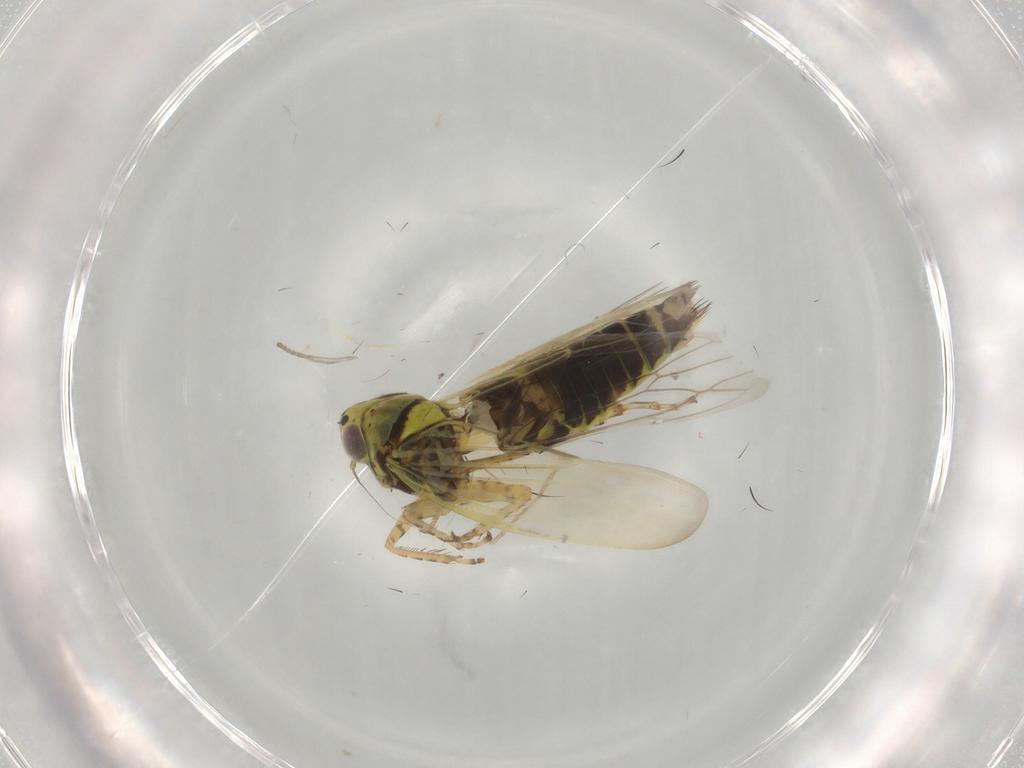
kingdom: Animalia
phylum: Arthropoda
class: Insecta
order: Hemiptera
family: Cicadellidae
